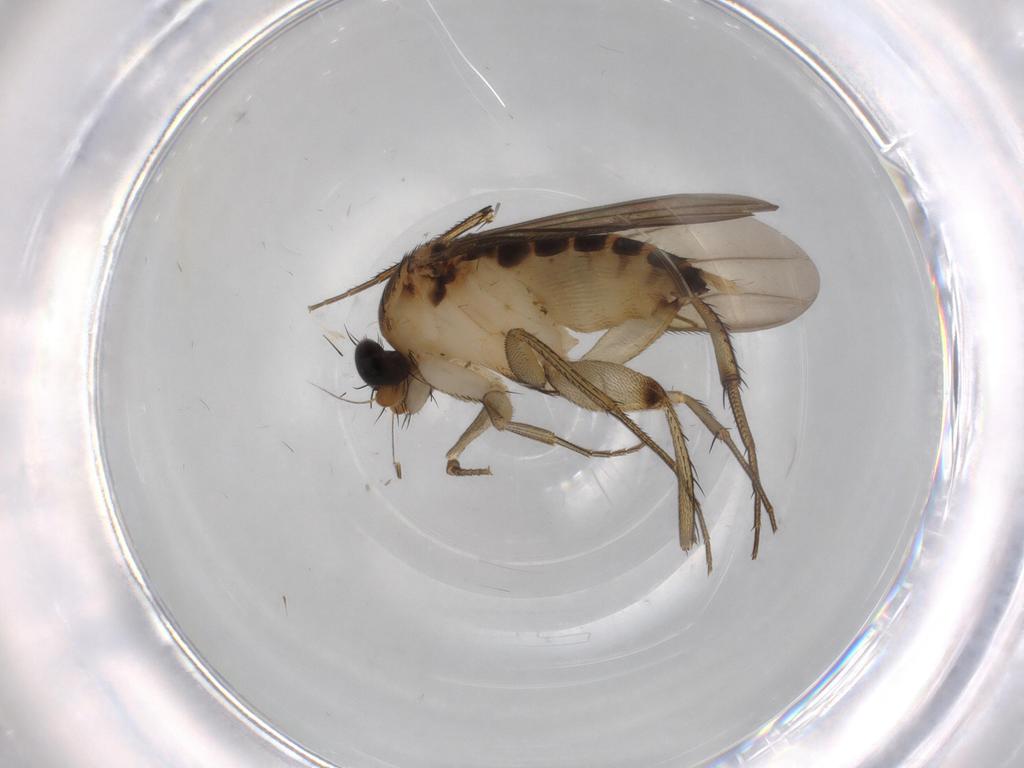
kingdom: Animalia
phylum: Arthropoda
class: Insecta
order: Diptera
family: Phoridae
